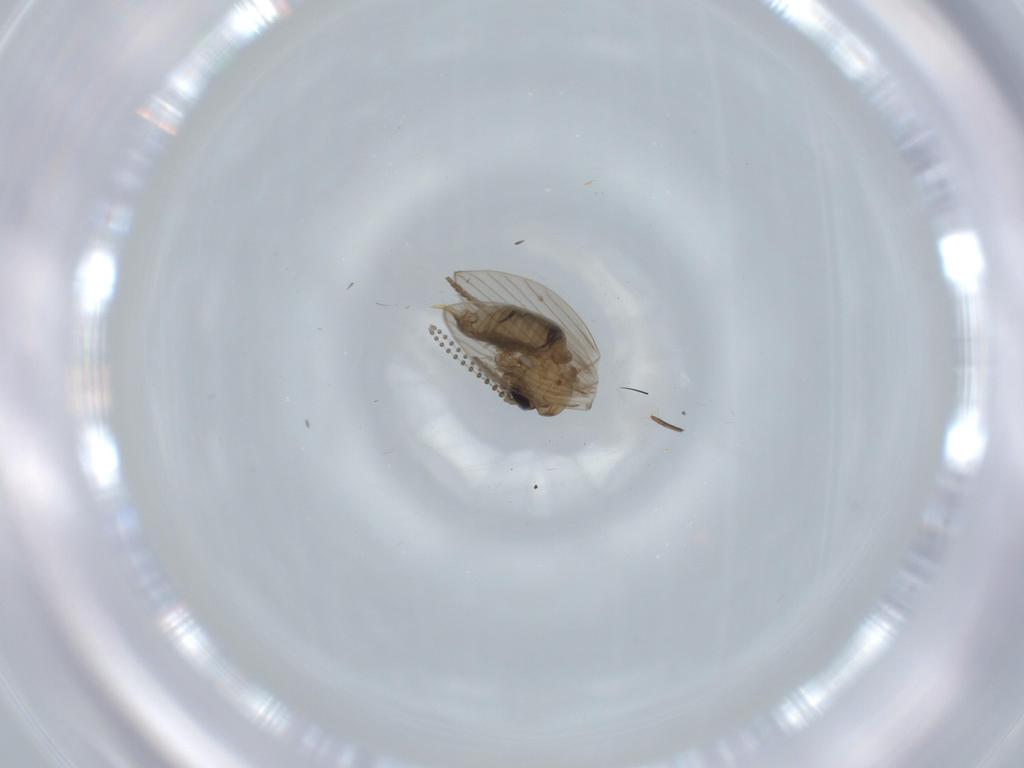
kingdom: Animalia
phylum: Arthropoda
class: Insecta
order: Diptera
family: Psychodidae
